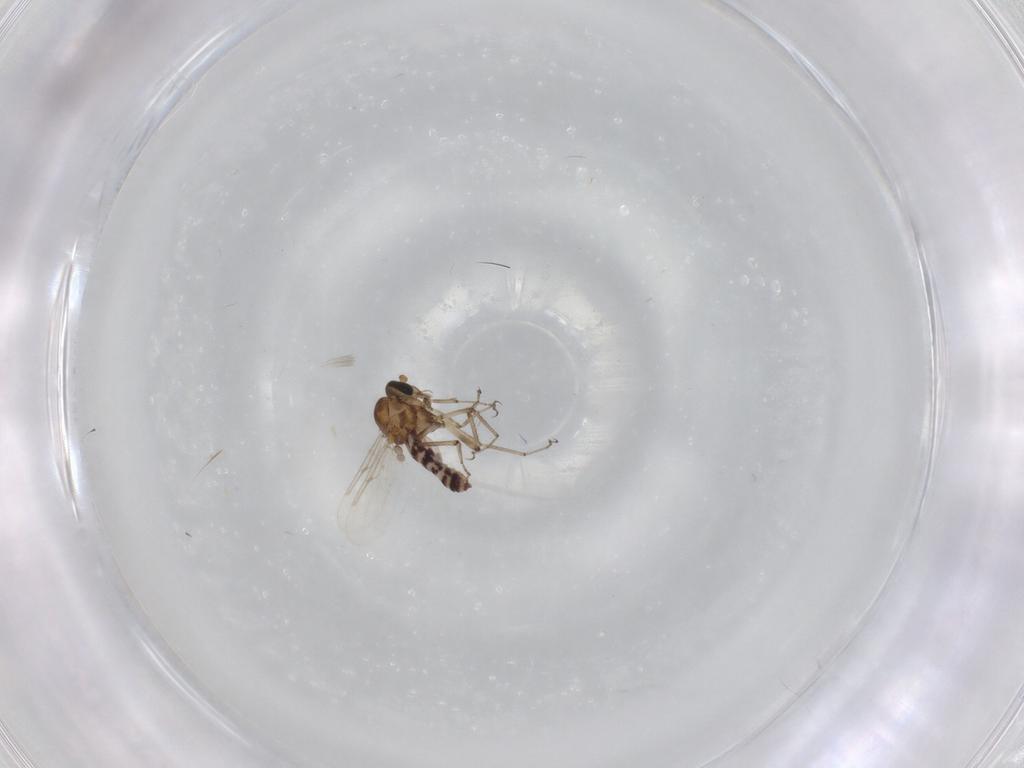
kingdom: Animalia
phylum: Arthropoda
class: Insecta
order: Diptera
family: Ceratopogonidae
